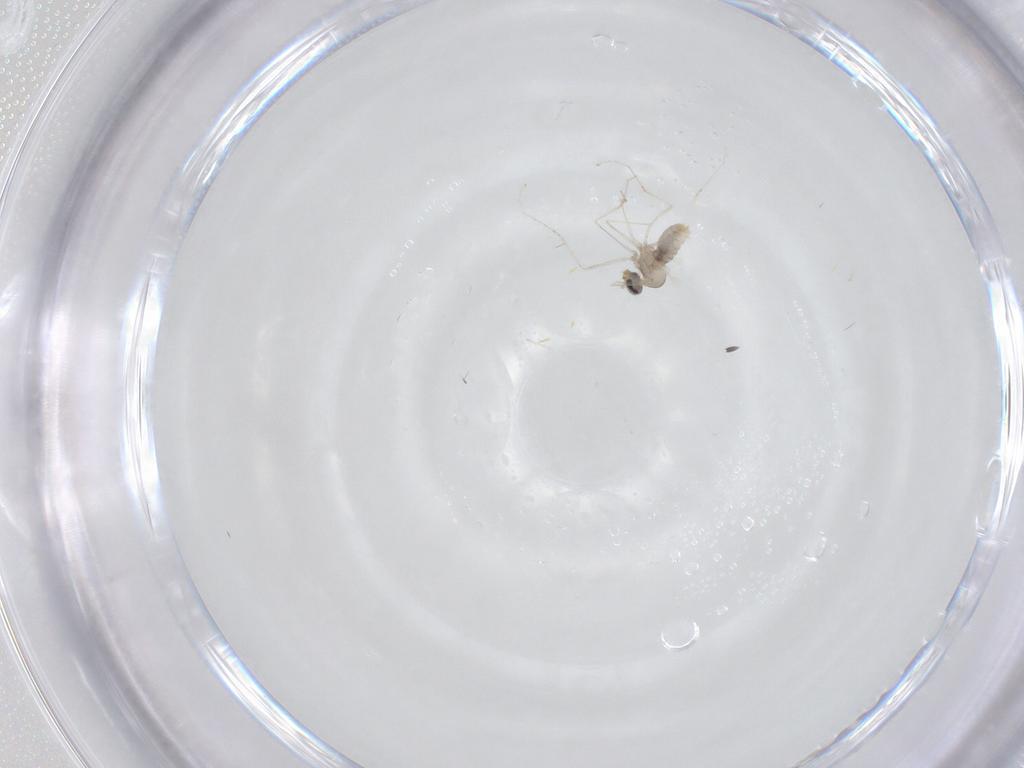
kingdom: Animalia
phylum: Arthropoda
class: Insecta
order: Diptera
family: Cecidomyiidae
